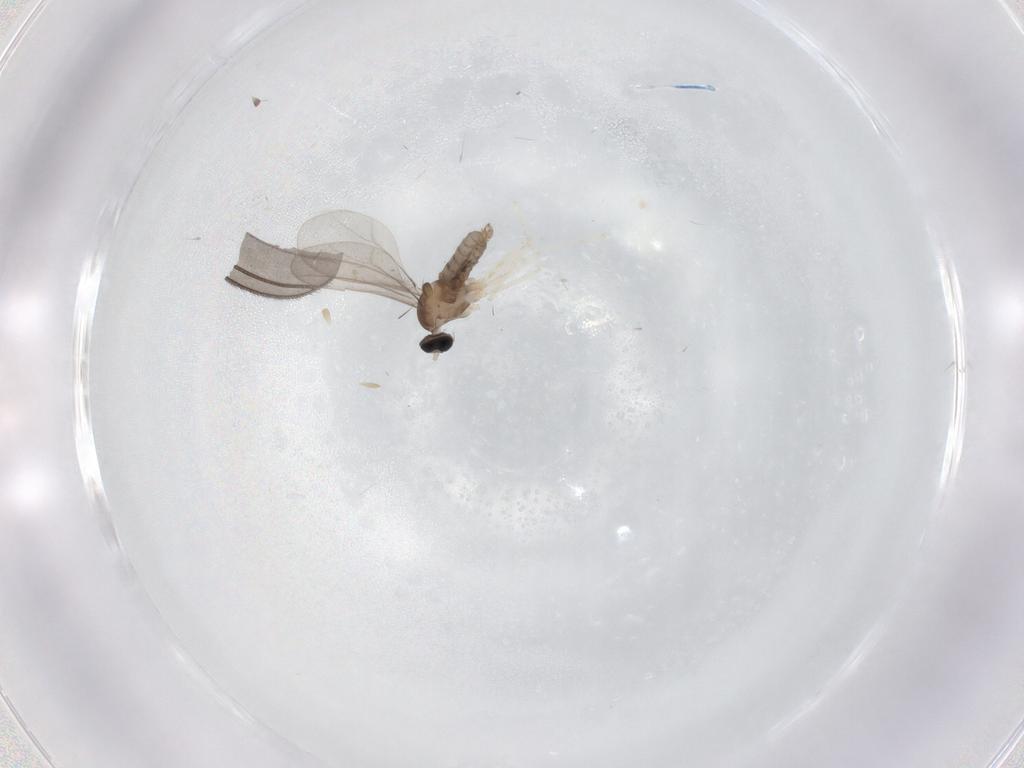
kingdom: Animalia
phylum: Arthropoda
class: Insecta
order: Diptera
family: Cecidomyiidae
